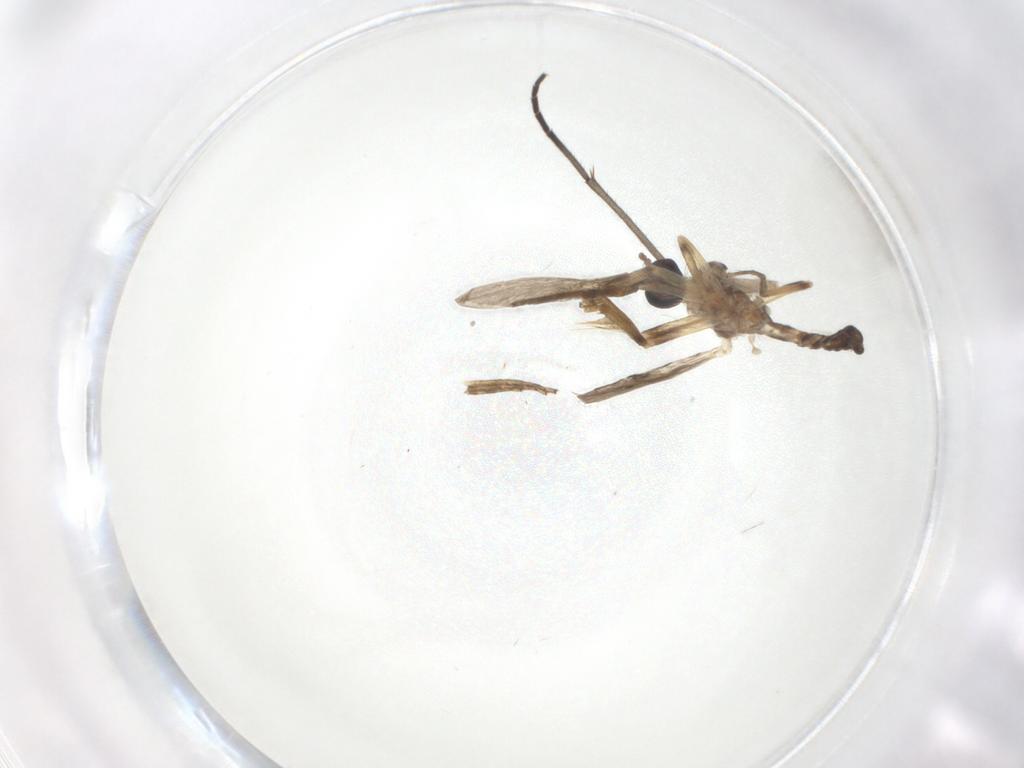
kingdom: Animalia
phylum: Arthropoda
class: Insecta
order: Diptera
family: Ceratopogonidae
